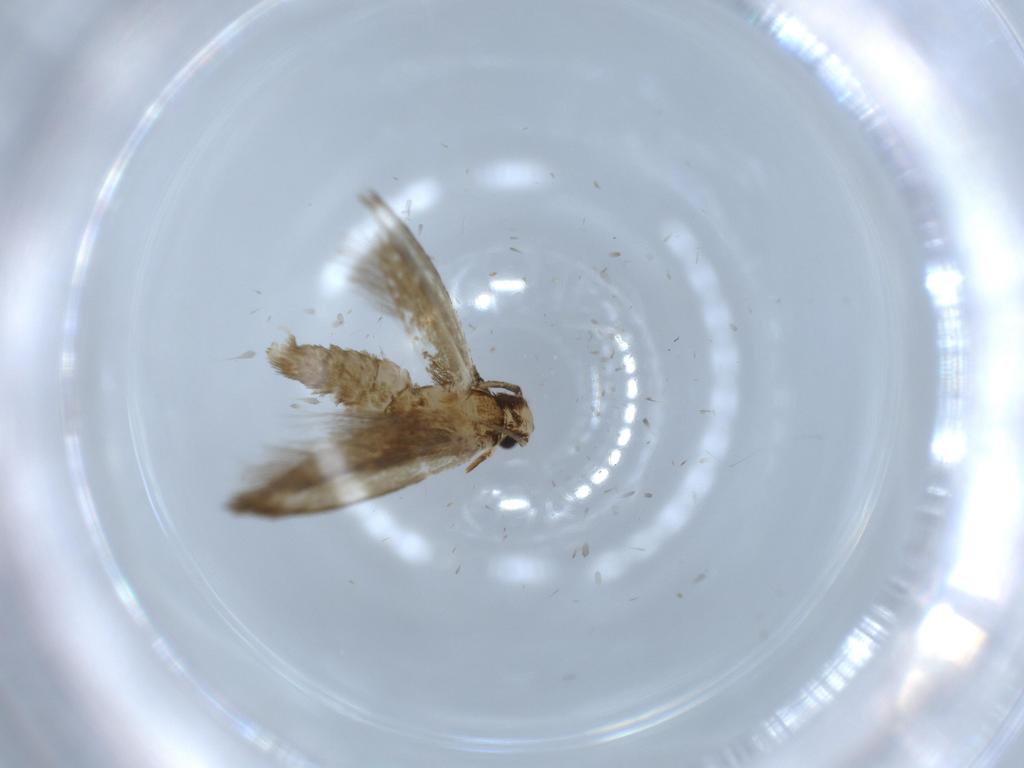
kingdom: Animalia
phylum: Arthropoda
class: Insecta
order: Lepidoptera
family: Tineidae
